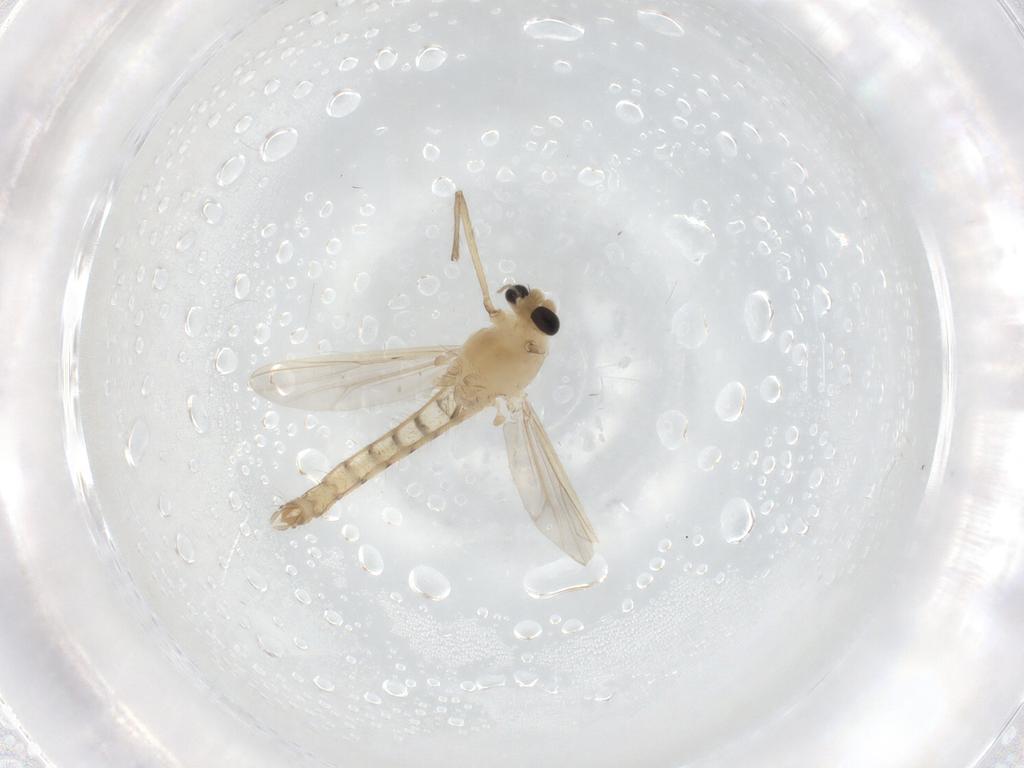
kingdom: Animalia
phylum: Arthropoda
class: Insecta
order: Diptera
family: Chironomidae
